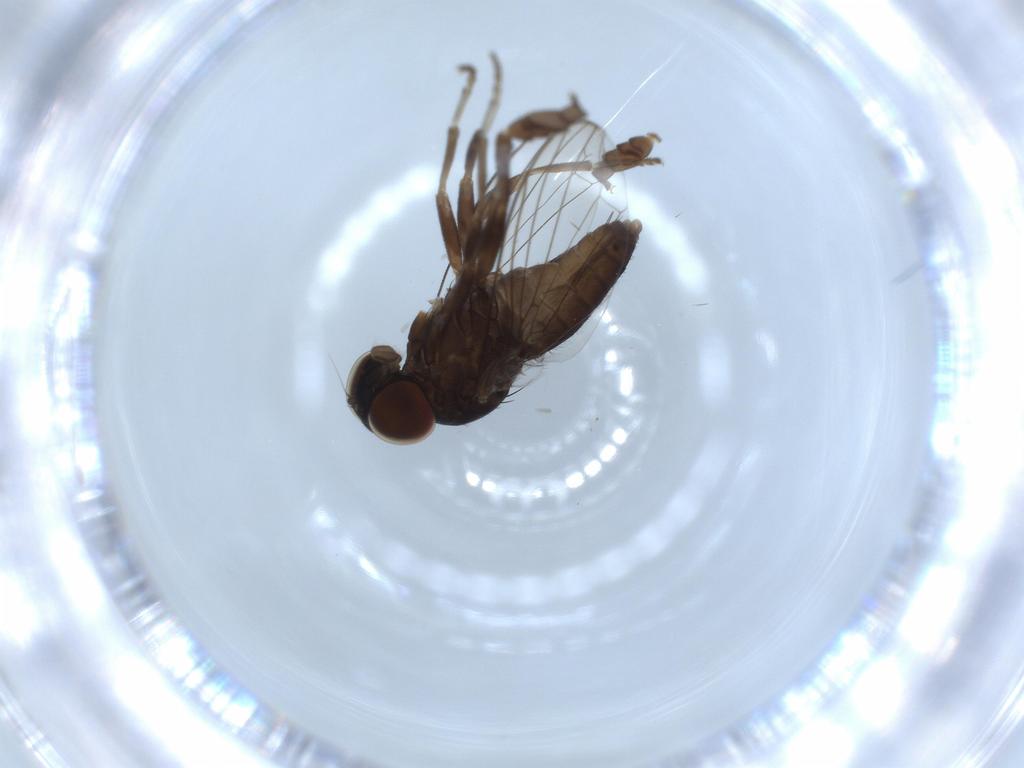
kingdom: Animalia
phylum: Arthropoda
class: Insecta
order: Diptera
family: Sciaridae
